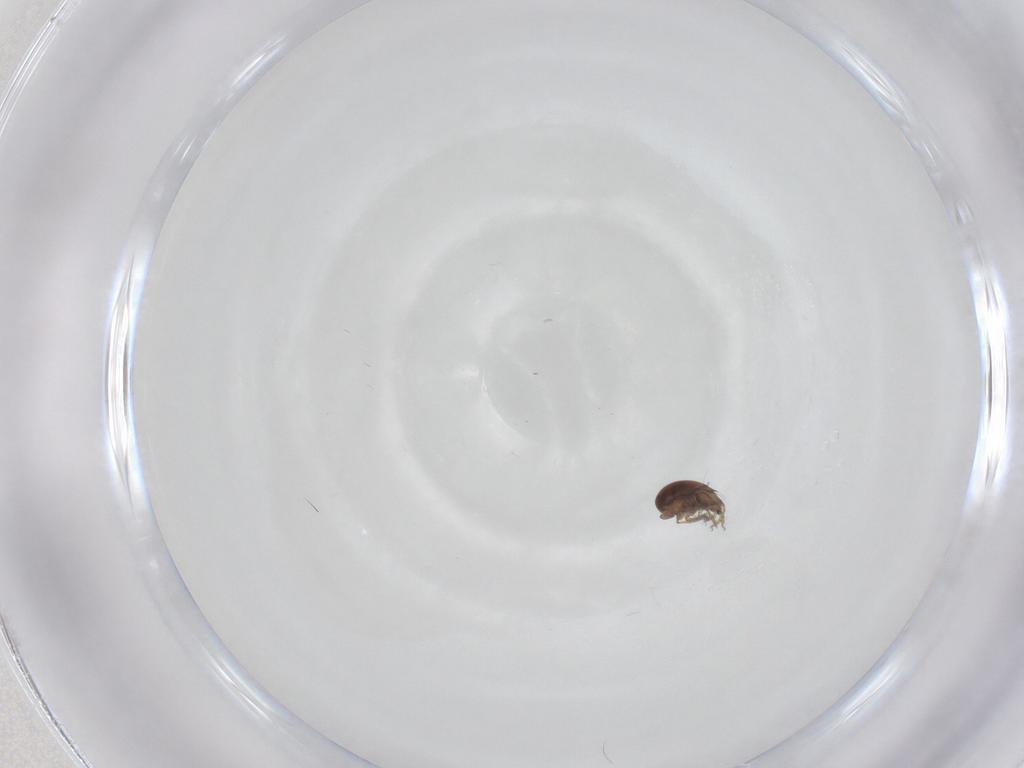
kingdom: Animalia
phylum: Arthropoda
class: Arachnida
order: Sarcoptiformes
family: Ceratozetidae
